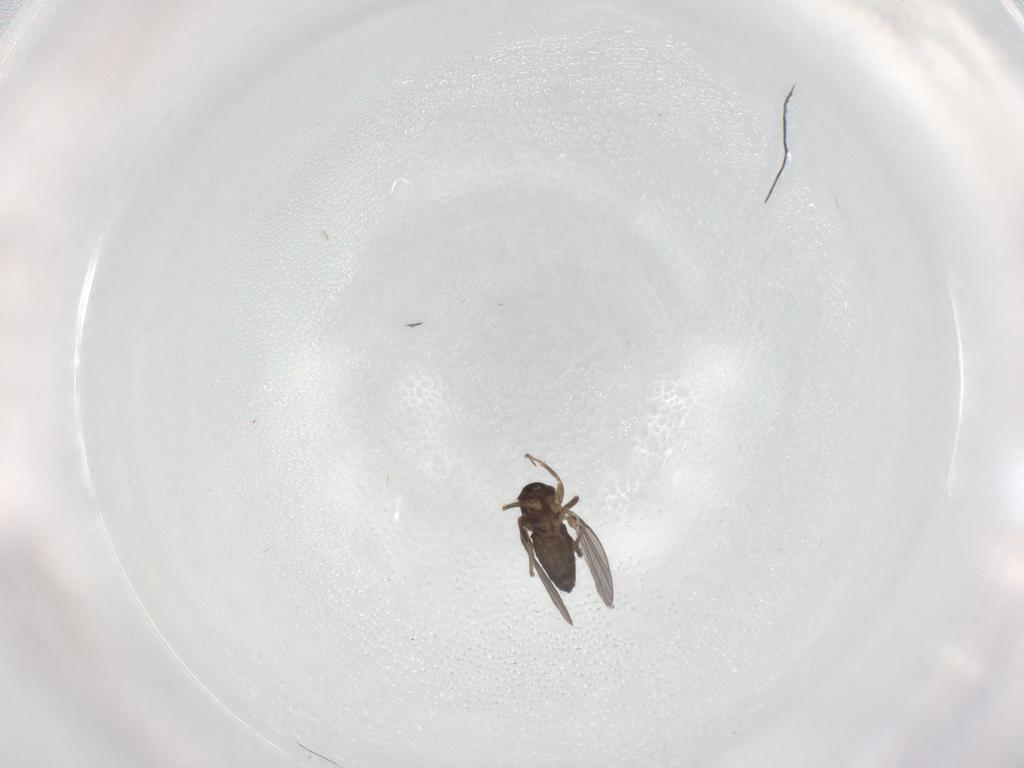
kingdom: Animalia
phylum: Arthropoda
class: Insecta
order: Diptera
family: Dolichopodidae
